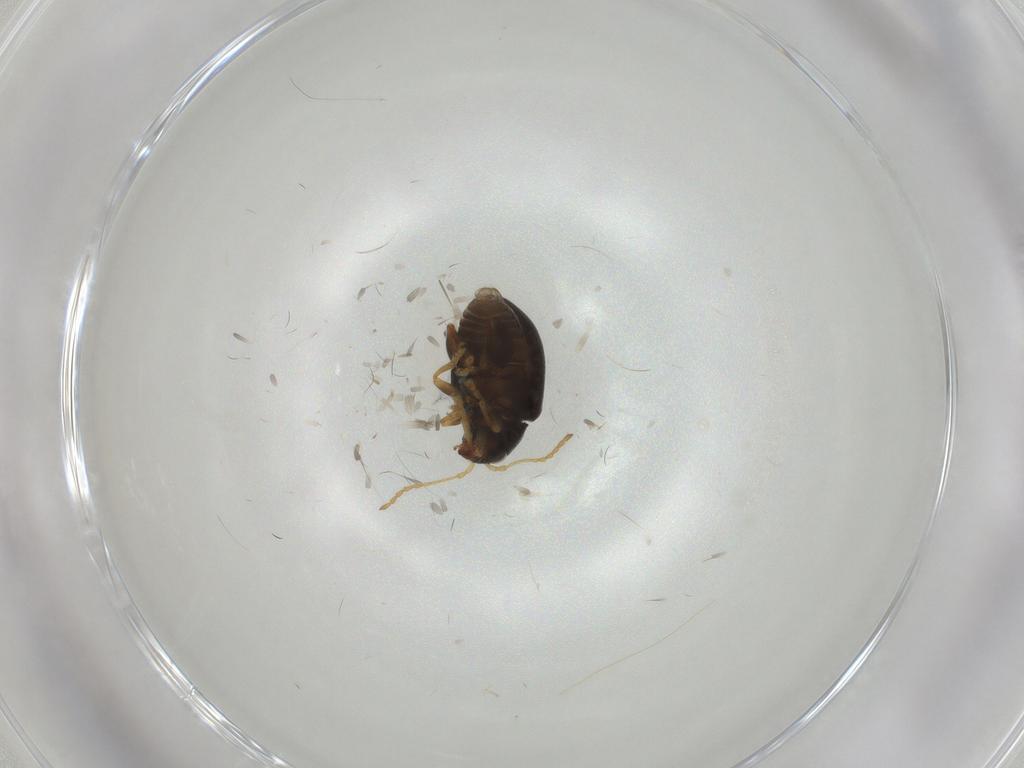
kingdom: Animalia
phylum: Arthropoda
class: Insecta
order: Coleoptera
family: Chrysomelidae
